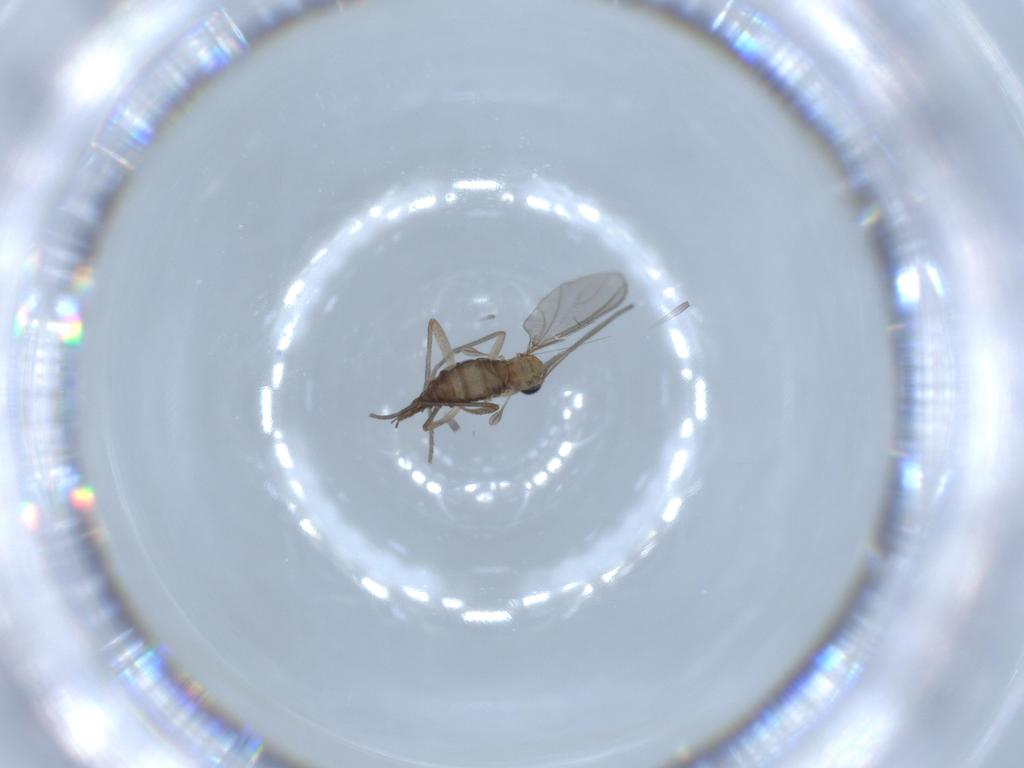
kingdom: Animalia
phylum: Arthropoda
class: Insecta
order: Diptera
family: Sciaridae
